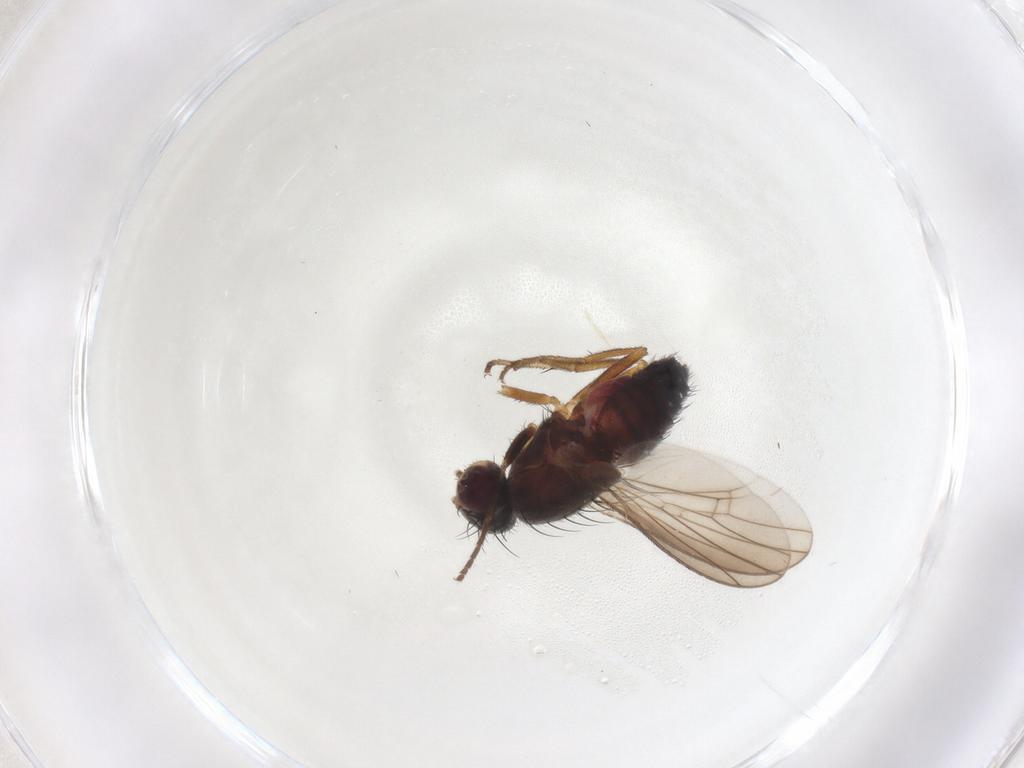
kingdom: Animalia
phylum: Arthropoda
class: Insecta
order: Diptera
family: Heleomyzidae
